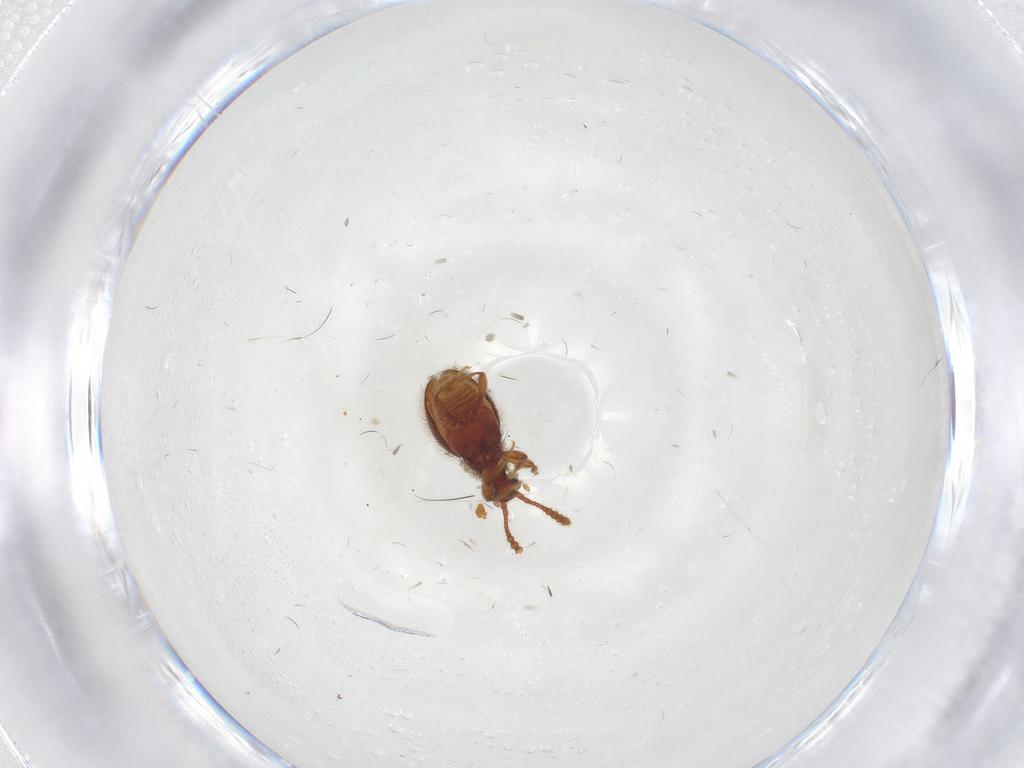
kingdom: Animalia
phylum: Arthropoda
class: Insecta
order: Coleoptera
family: Staphylinidae
